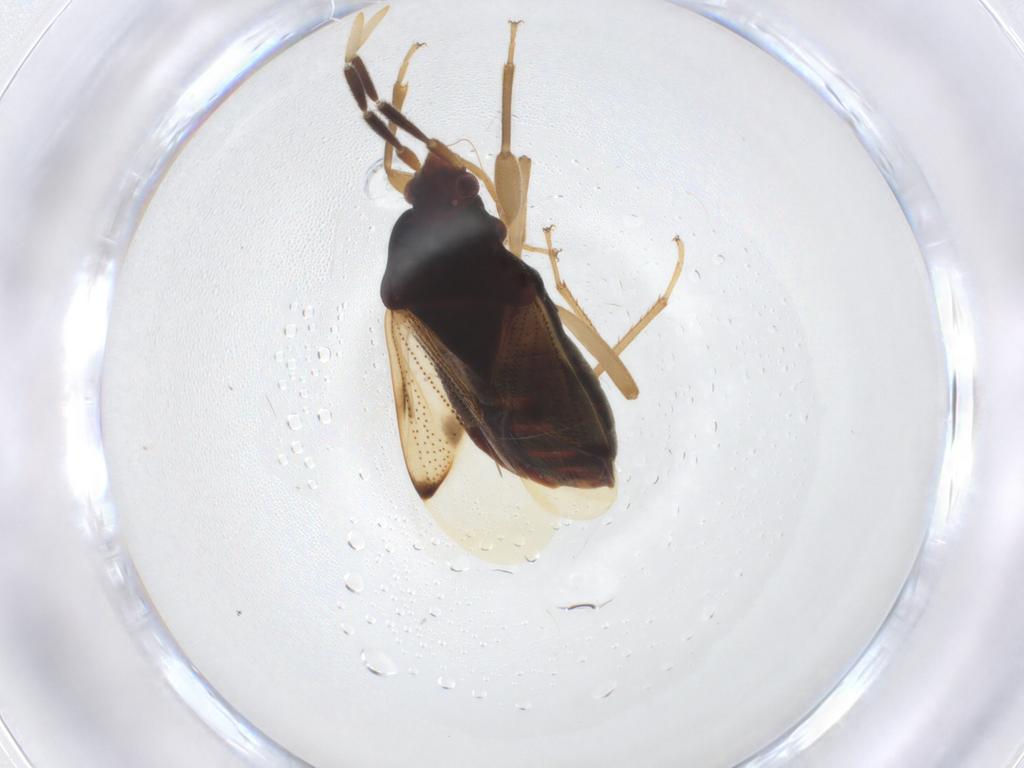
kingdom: Animalia
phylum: Arthropoda
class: Insecta
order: Hemiptera
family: Rhyparochromidae
